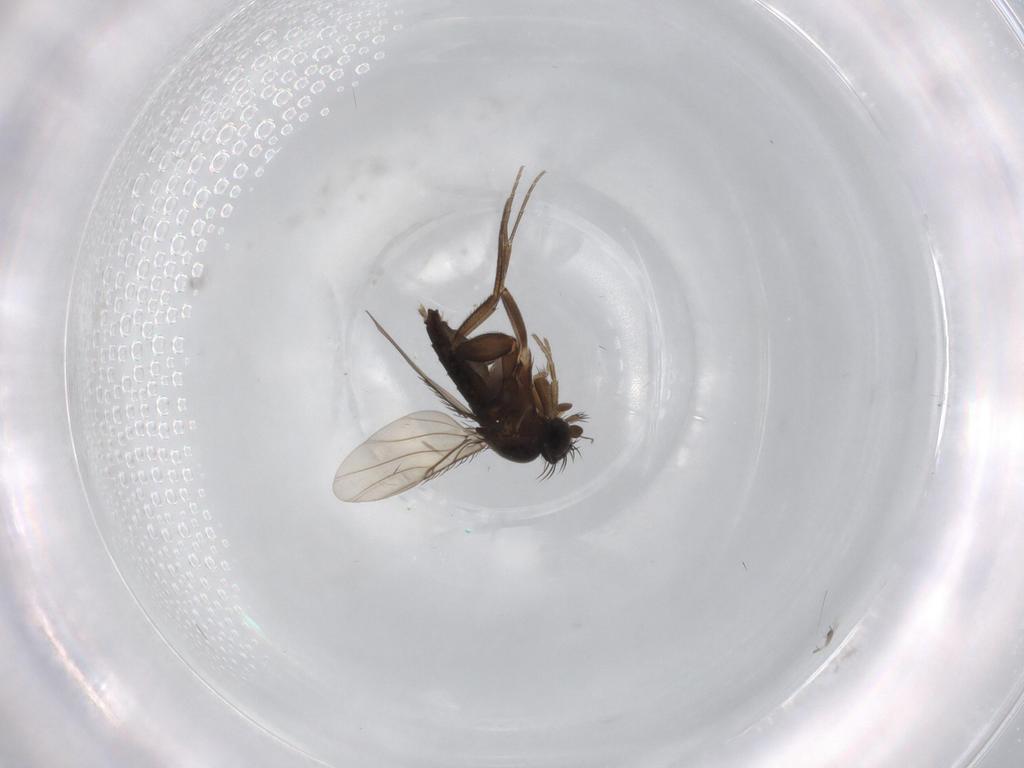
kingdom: Animalia
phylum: Arthropoda
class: Insecta
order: Diptera
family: Phoridae
